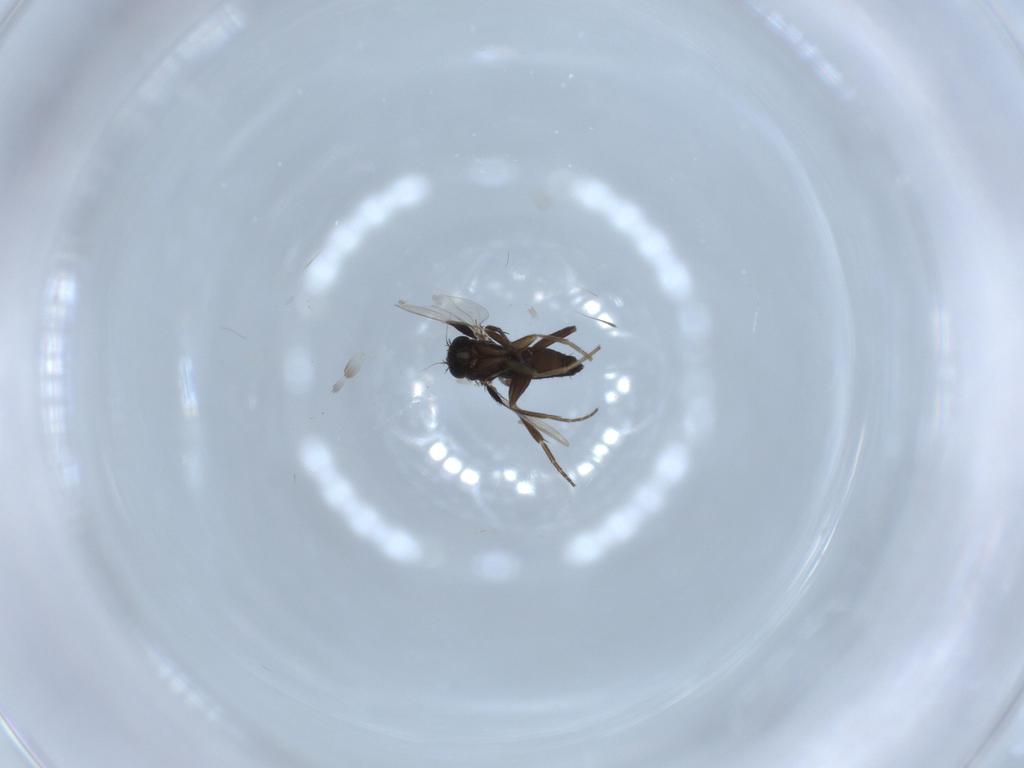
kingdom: Animalia
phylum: Arthropoda
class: Insecta
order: Diptera
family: Phoridae
